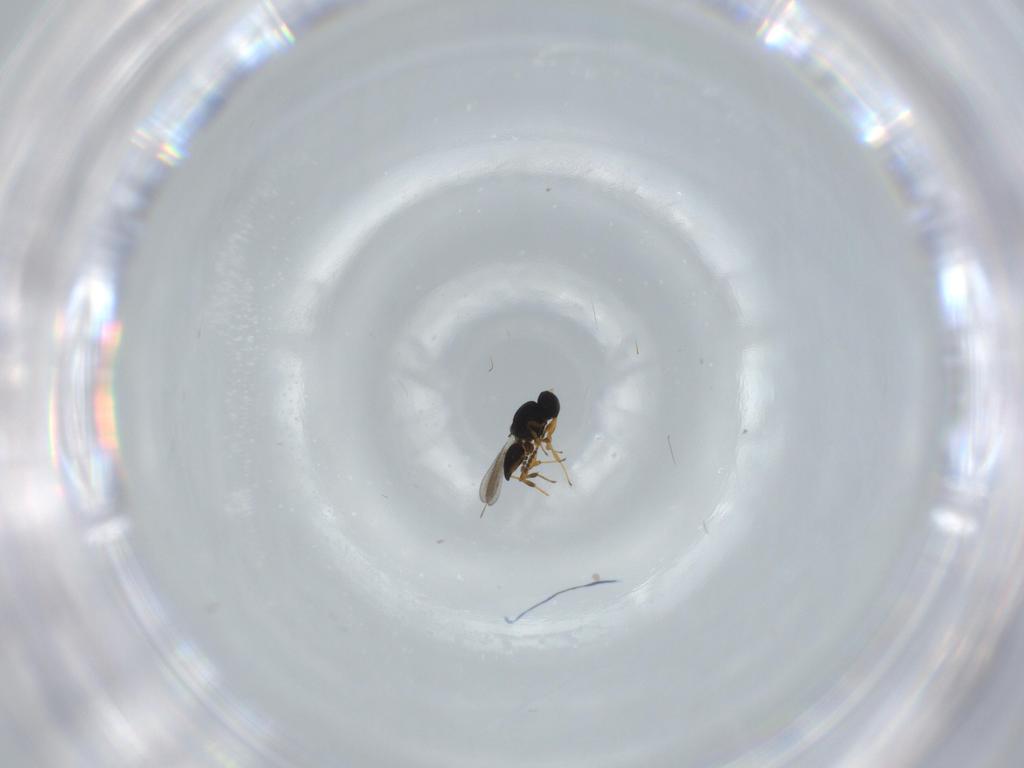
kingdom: Animalia
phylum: Arthropoda
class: Insecta
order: Hymenoptera
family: Platygastridae
